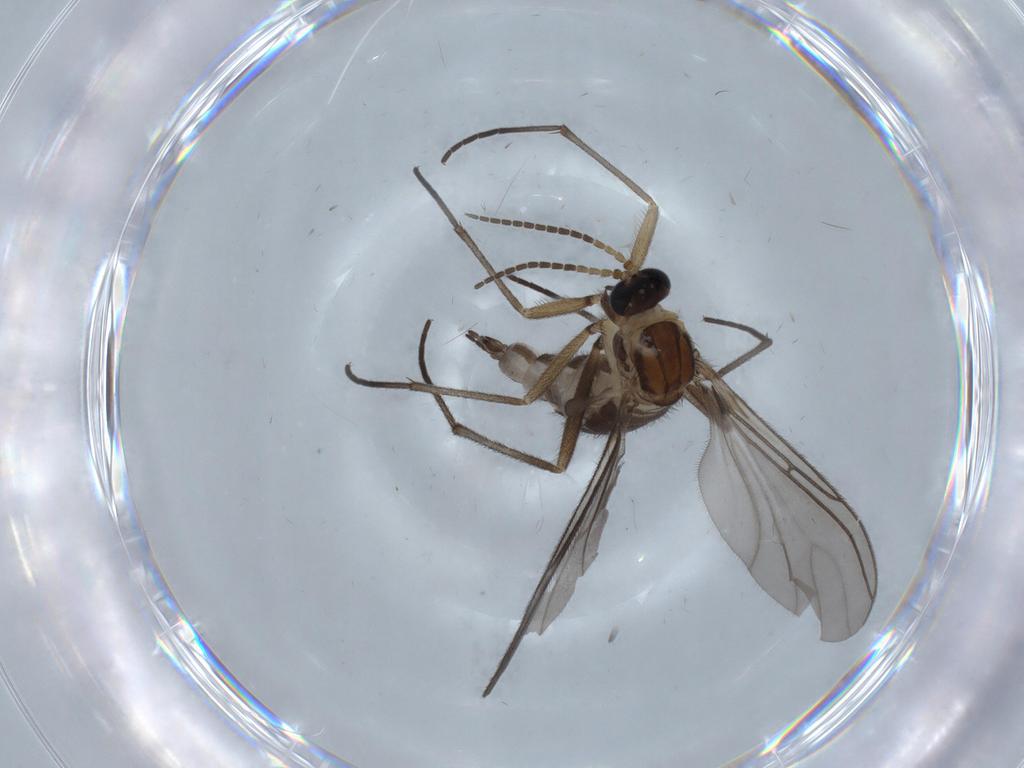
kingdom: Animalia
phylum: Arthropoda
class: Insecta
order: Diptera
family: Sciaridae
